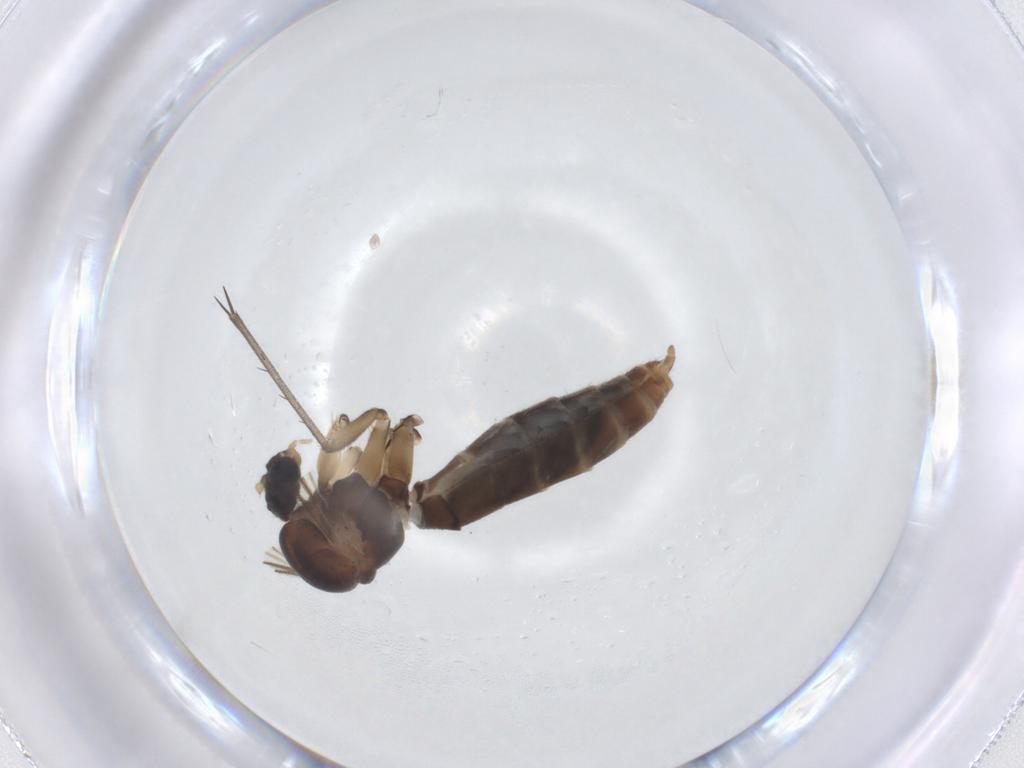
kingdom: Animalia
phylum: Arthropoda
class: Insecta
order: Diptera
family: Mycetophilidae
